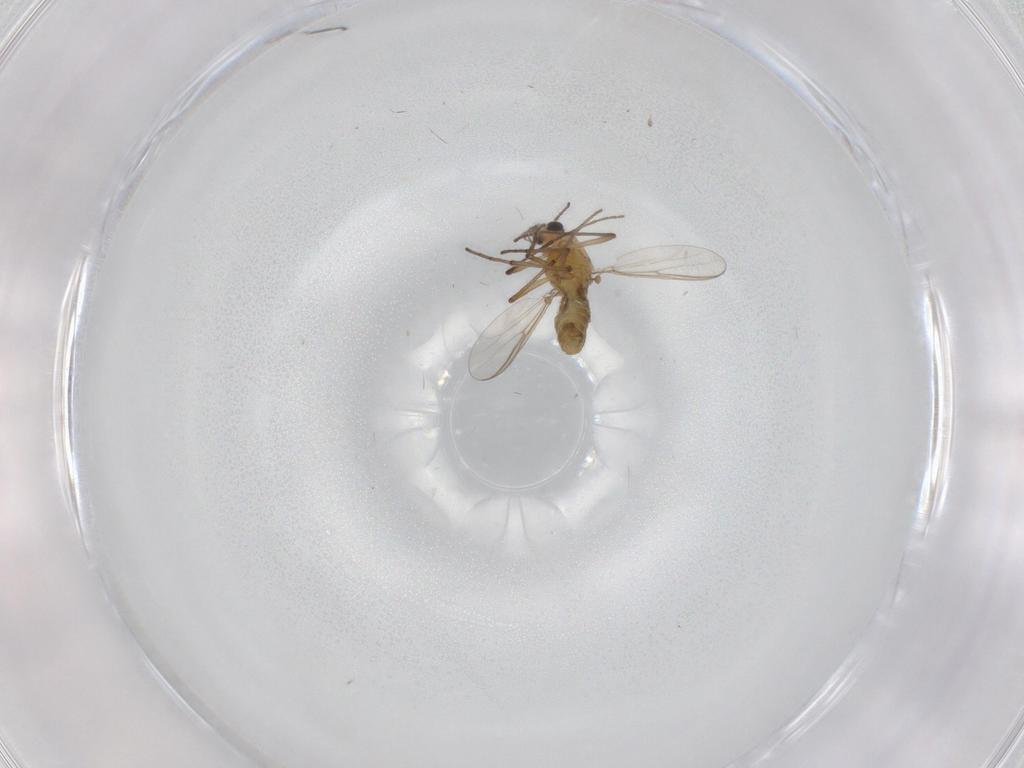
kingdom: Animalia
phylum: Arthropoda
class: Insecta
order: Diptera
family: Chironomidae
